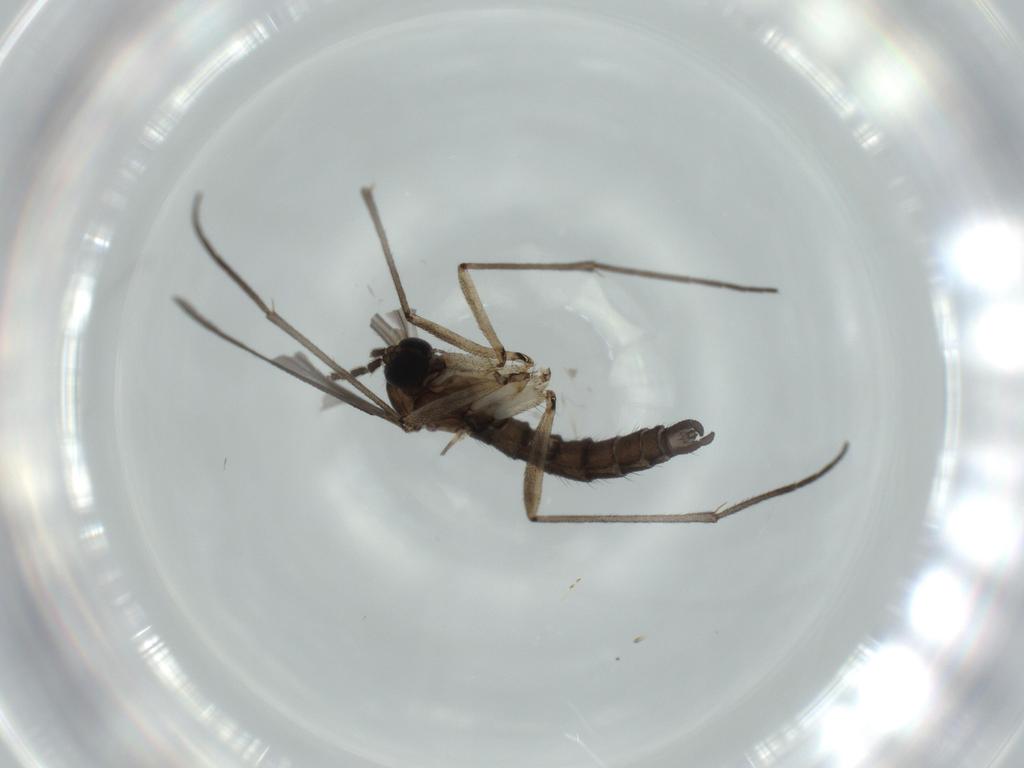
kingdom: Animalia
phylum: Arthropoda
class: Insecta
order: Diptera
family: Sciaridae
